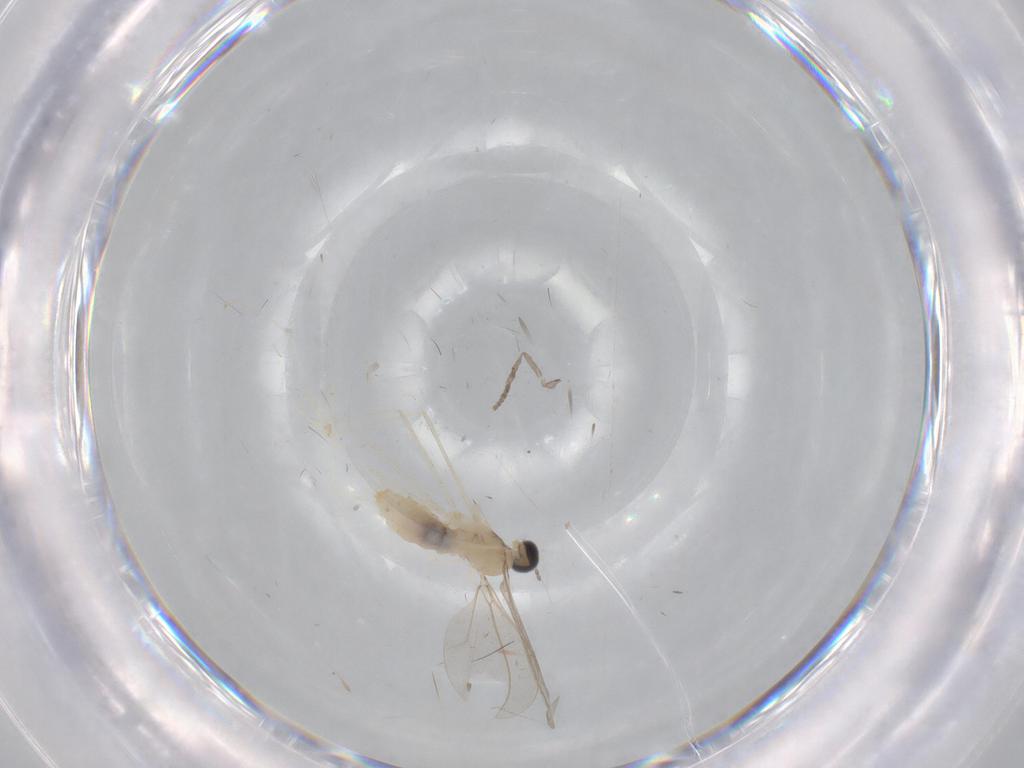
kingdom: Animalia
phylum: Arthropoda
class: Insecta
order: Diptera
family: Cecidomyiidae
